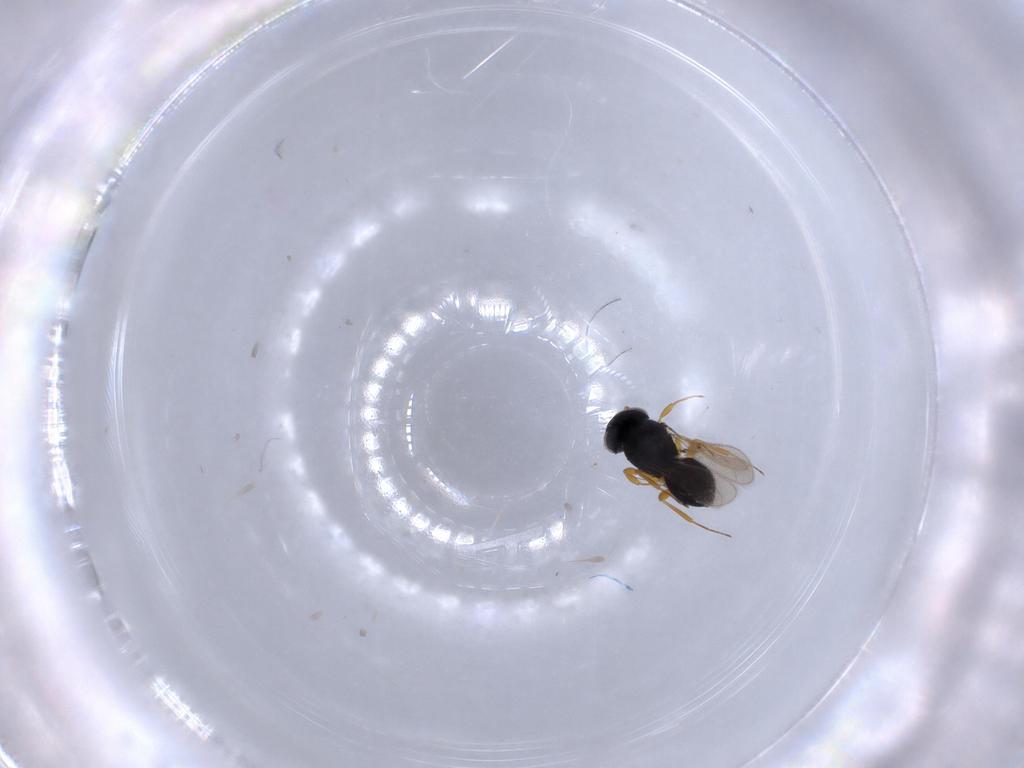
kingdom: Animalia
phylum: Arthropoda
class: Insecta
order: Hymenoptera
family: Scelionidae
